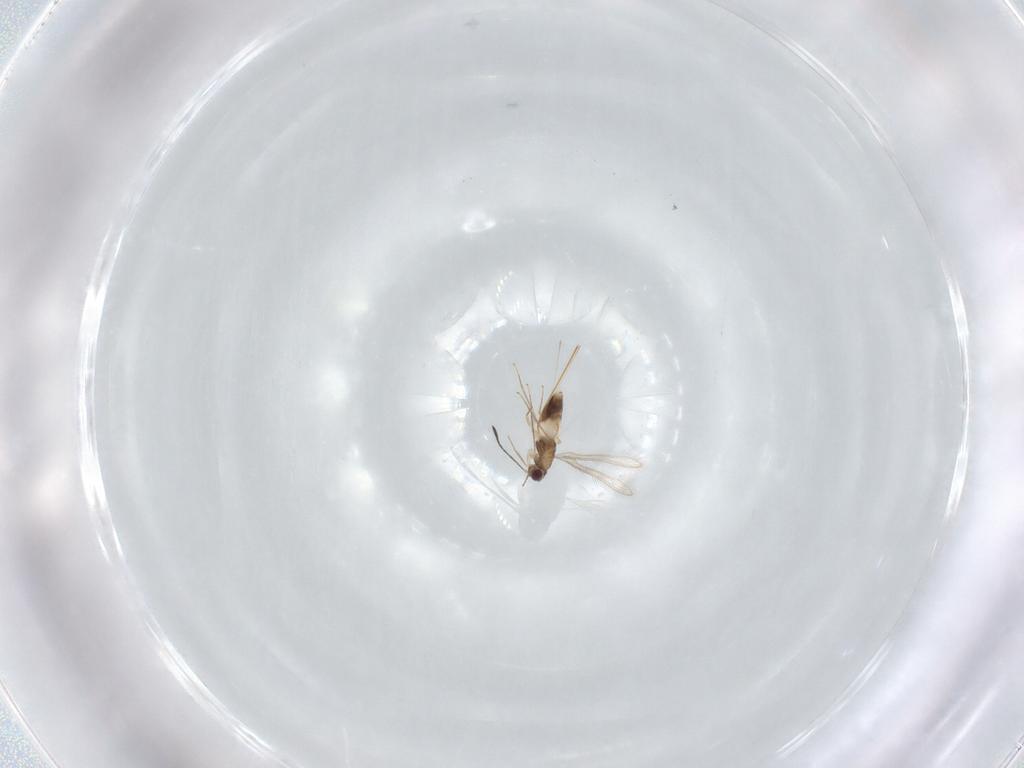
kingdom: Animalia
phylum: Arthropoda
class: Insecta
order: Hymenoptera
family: Mymaridae
